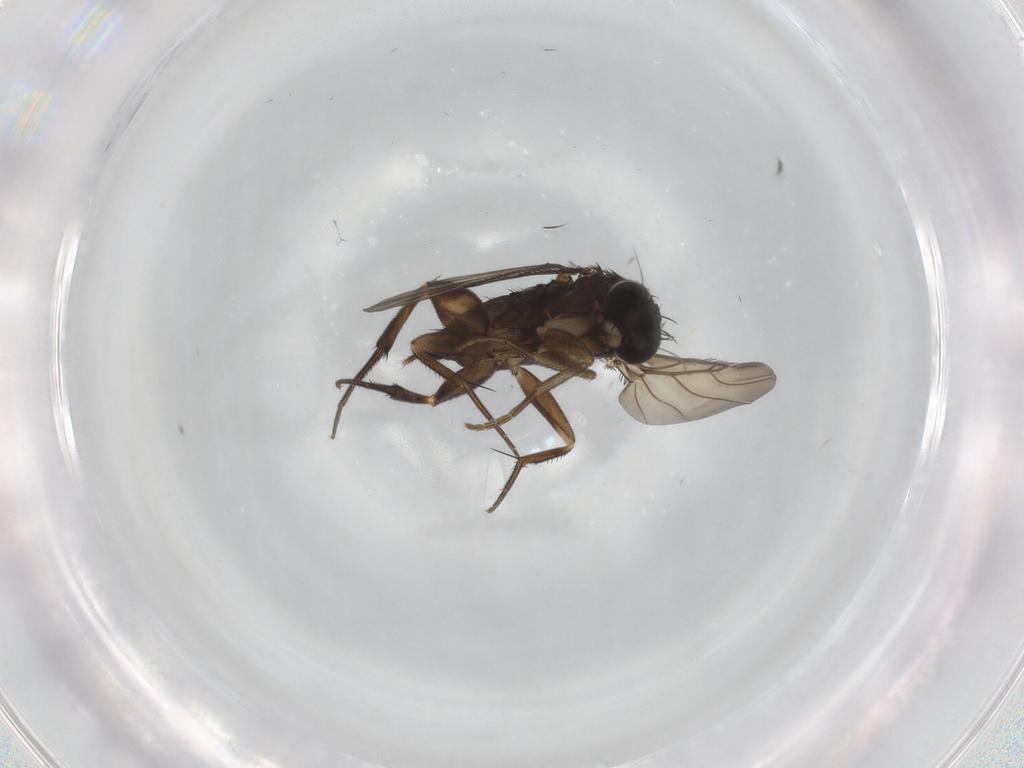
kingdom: Animalia
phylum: Arthropoda
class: Insecta
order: Diptera
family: Phoridae
